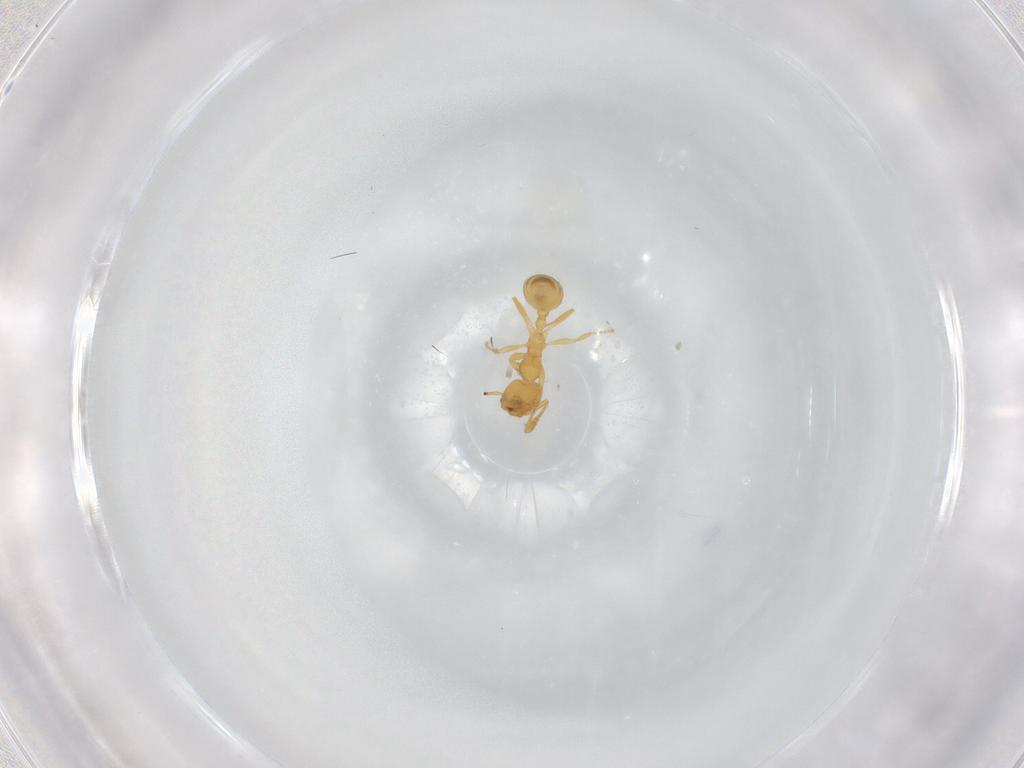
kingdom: Animalia
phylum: Arthropoda
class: Insecta
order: Hymenoptera
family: Formicidae
